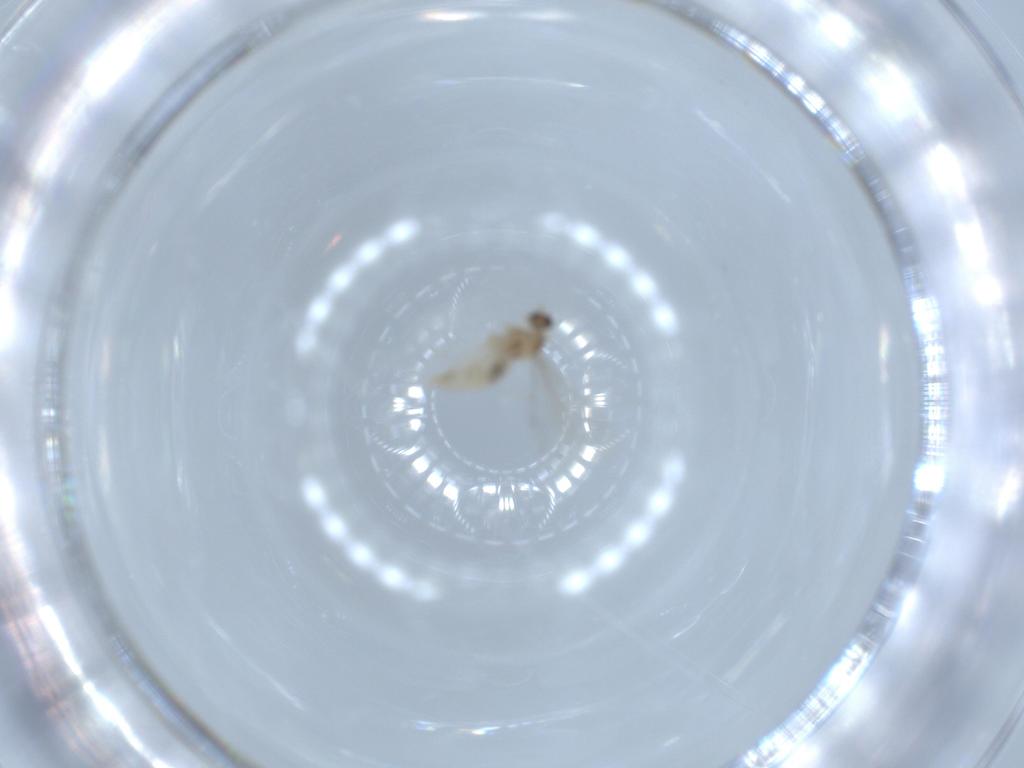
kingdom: Animalia
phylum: Arthropoda
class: Insecta
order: Diptera
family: Cecidomyiidae
